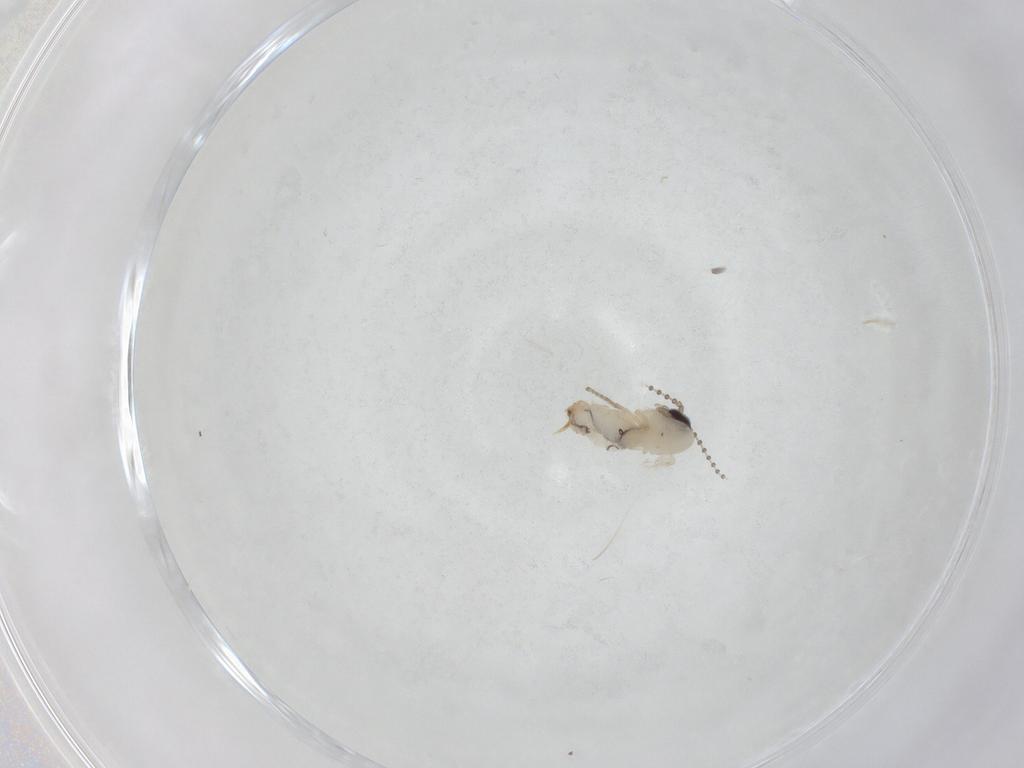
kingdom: Animalia
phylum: Arthropoda
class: Insecta
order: Diptera
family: Psychodidae
